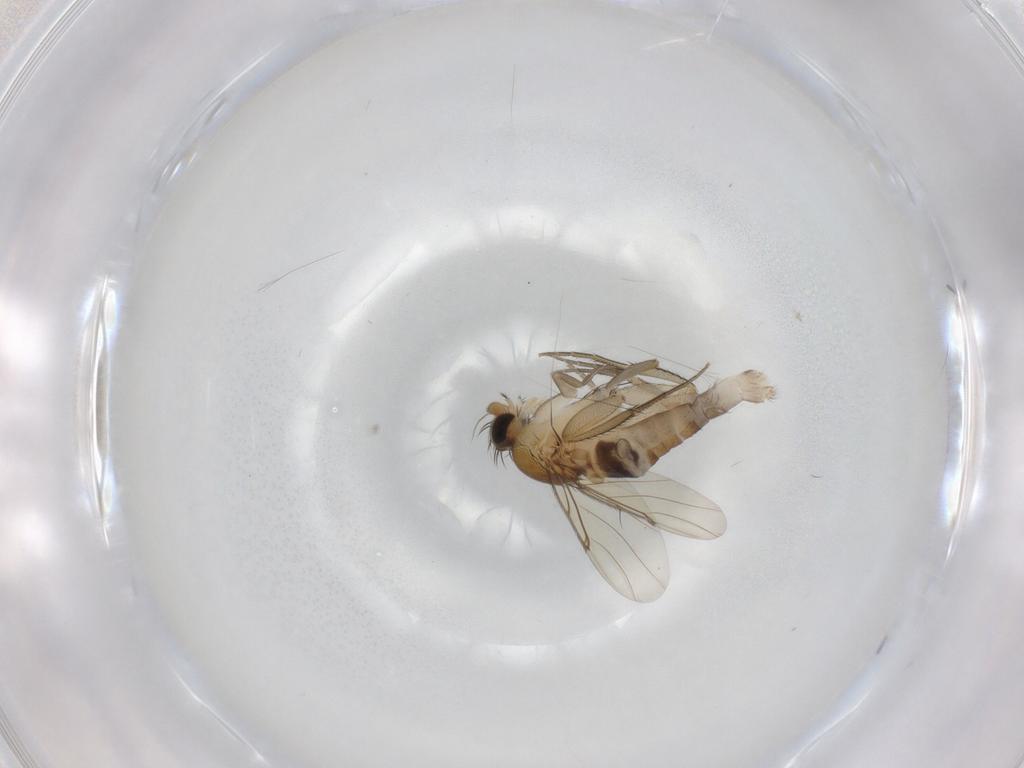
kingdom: Animalia
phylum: Arthropoda
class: Insecta
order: Diptera
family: Phoridae
